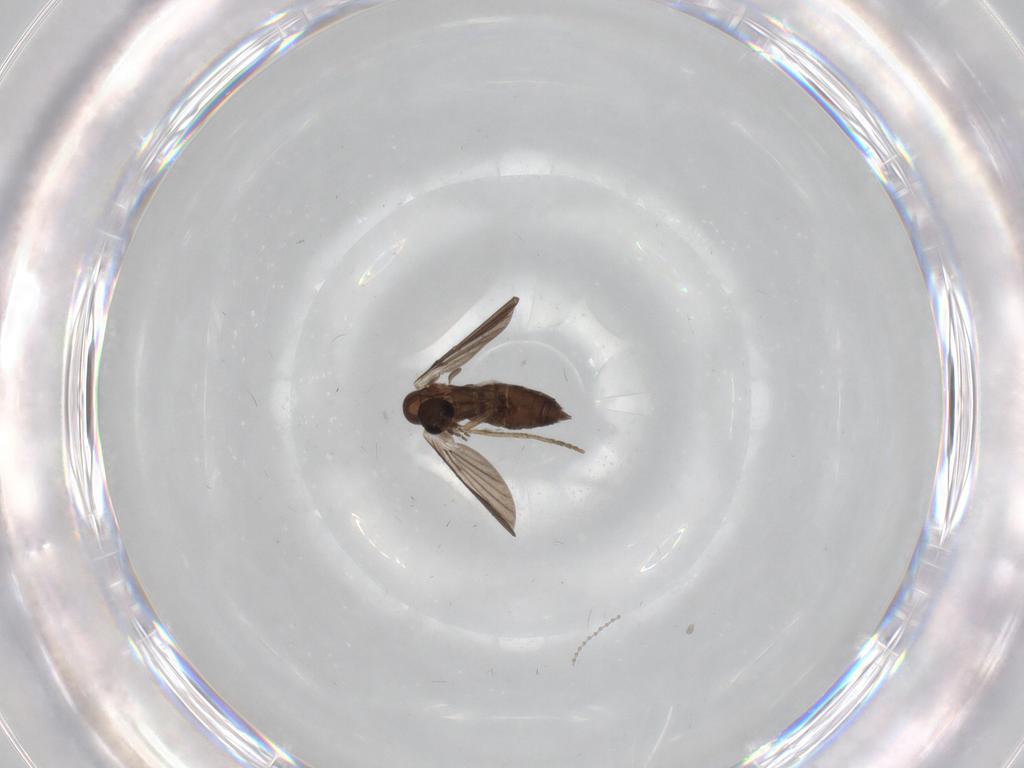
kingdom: Animalia
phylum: Arthropoda
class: Insecta
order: Diptera
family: Cecidomyiidae
